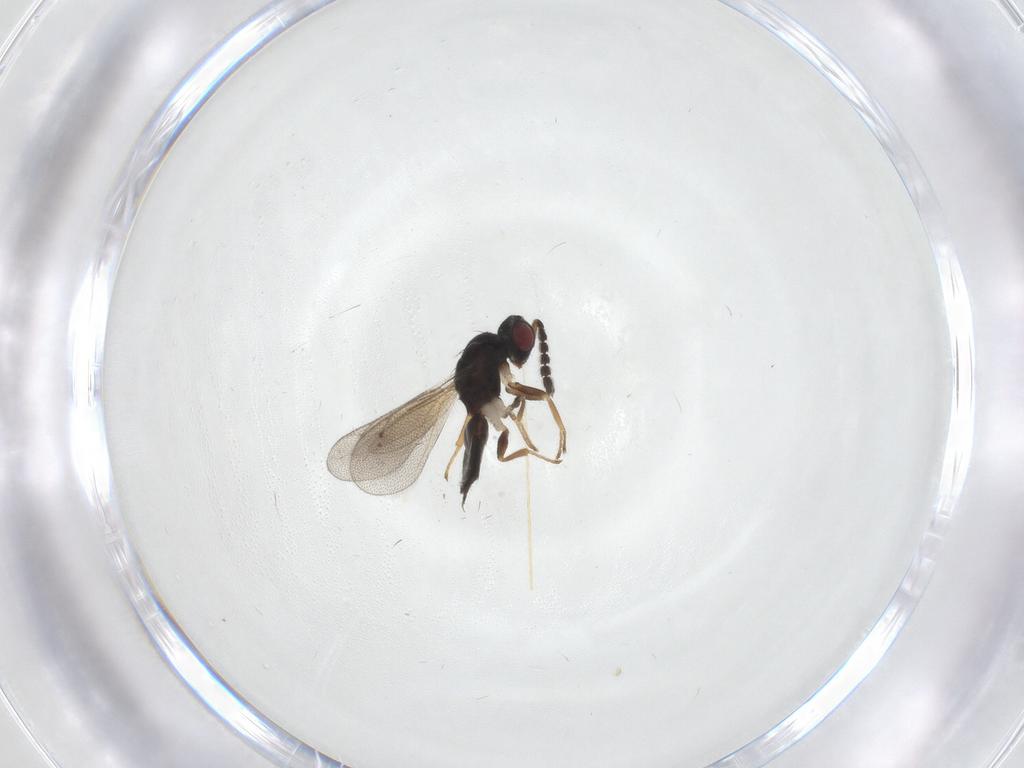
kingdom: Animalia
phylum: Arthropoda
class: Insecta
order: Hymenoptera
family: Eulophidae
